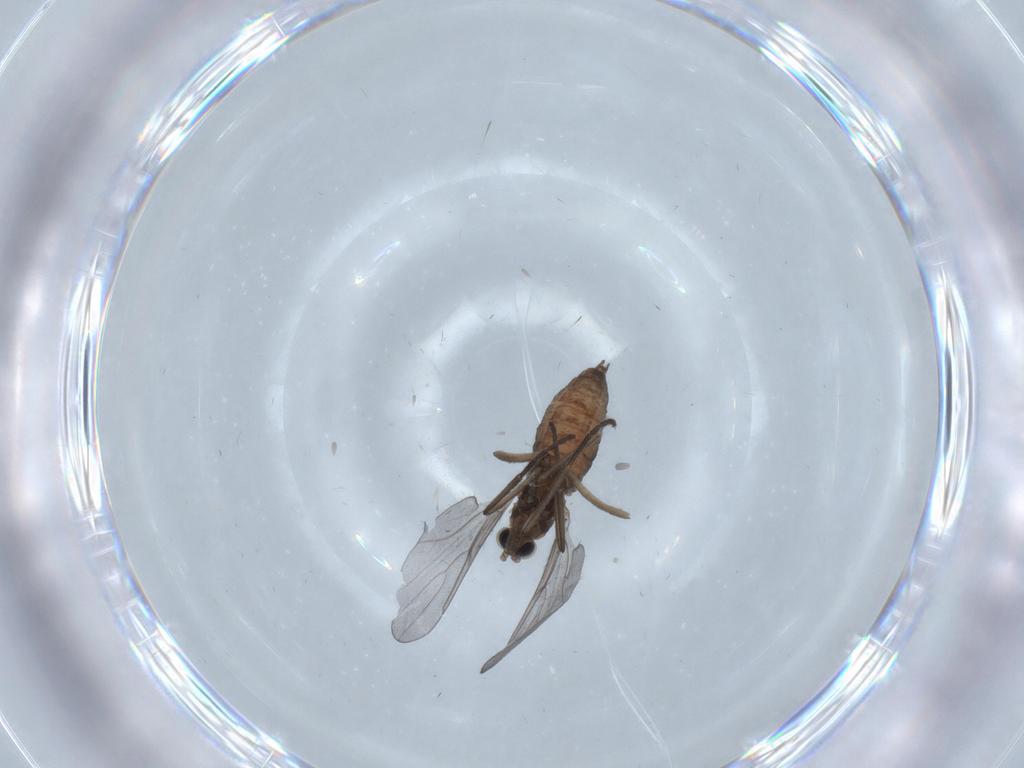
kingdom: Animalia
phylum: Arthropoda
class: Insecta
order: Diptera
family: Cecidomyiidae
